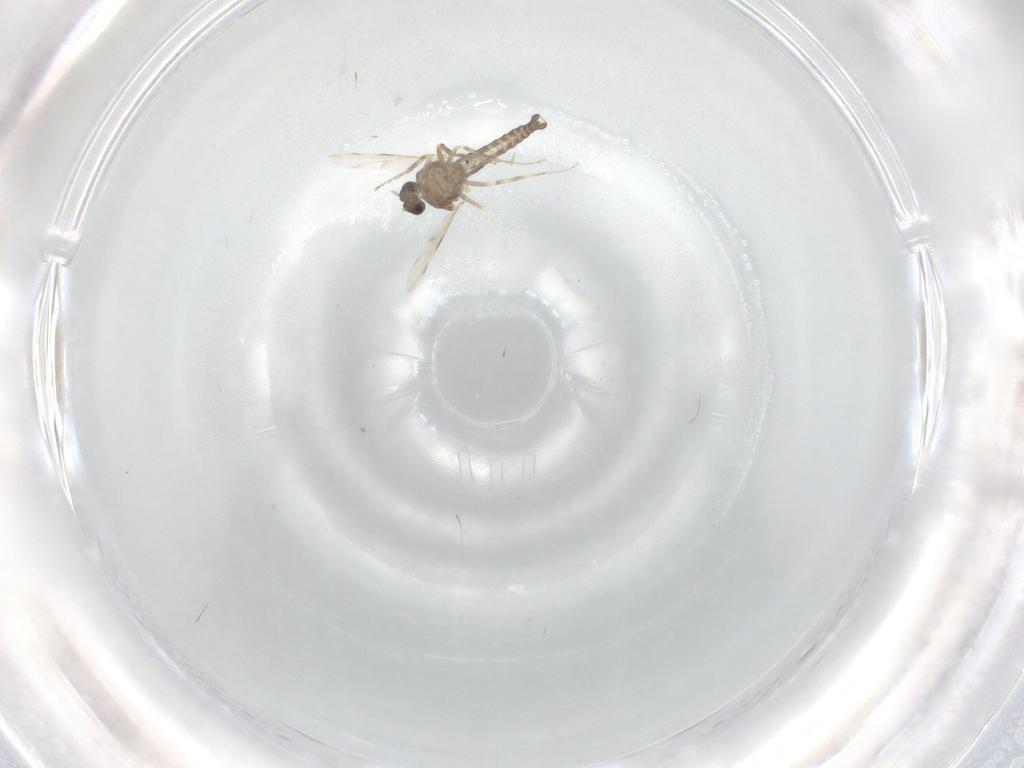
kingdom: Animalia
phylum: Arthropoda
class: Insecta
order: Diptera
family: Ceratopogonidae
